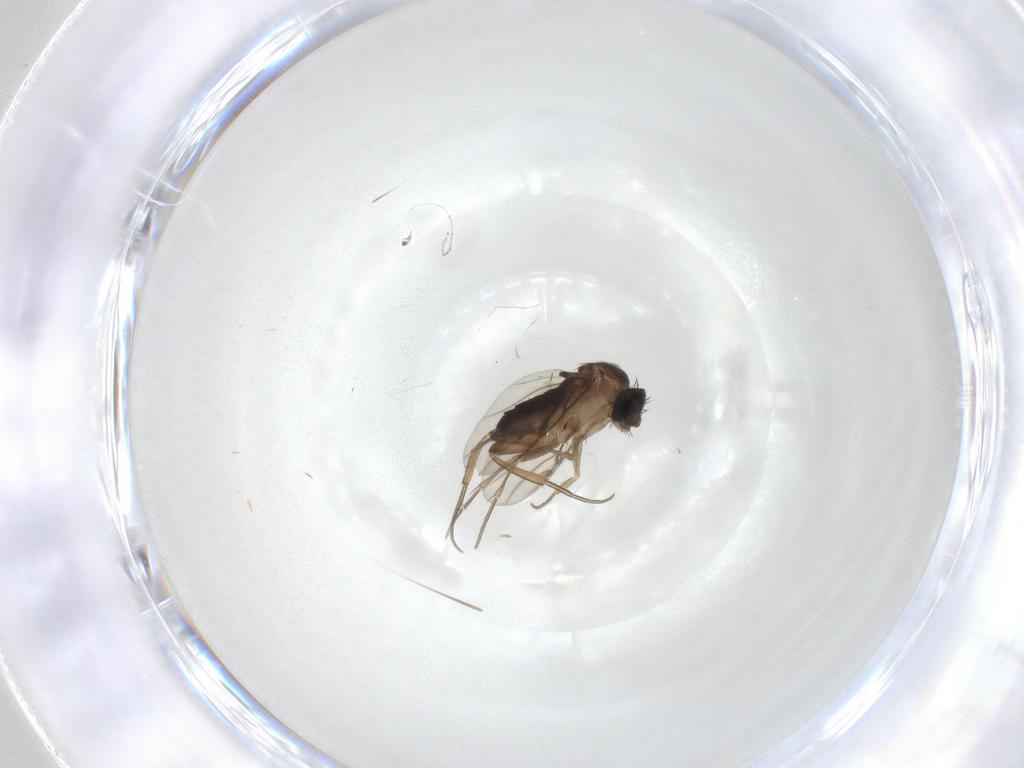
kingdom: Animalia
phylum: Arthropoda
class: Insecta
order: Diptera
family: Phoridae
